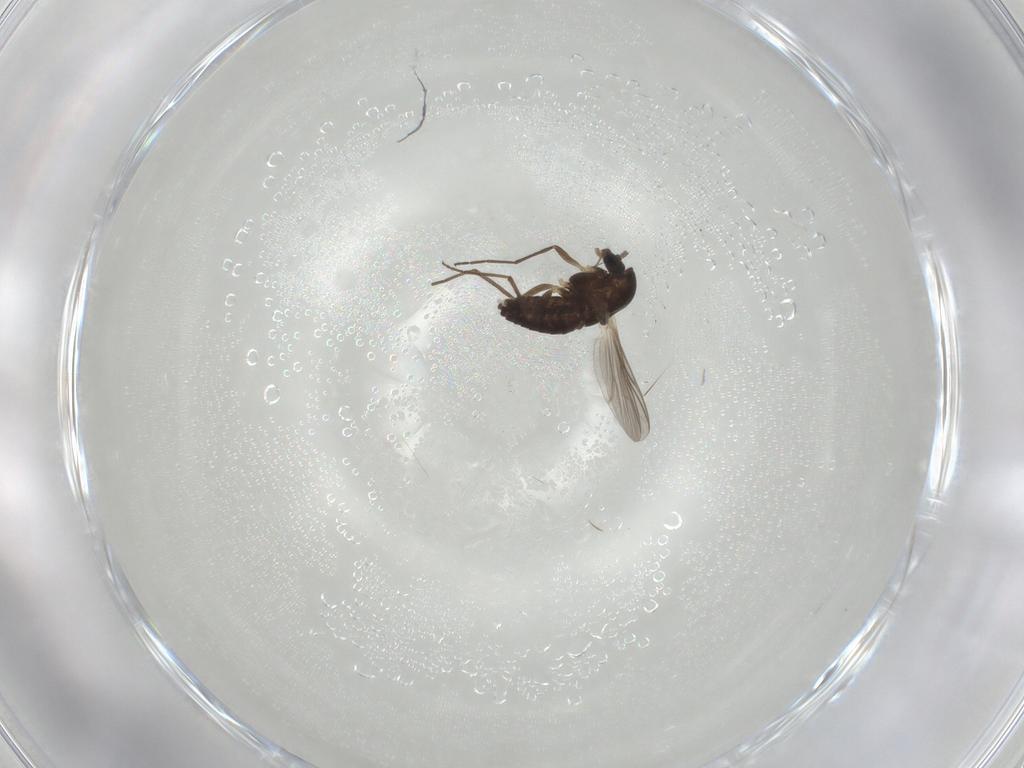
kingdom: Animalia
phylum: Arthropoda
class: Insecta
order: Diptera
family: Chironomidae
